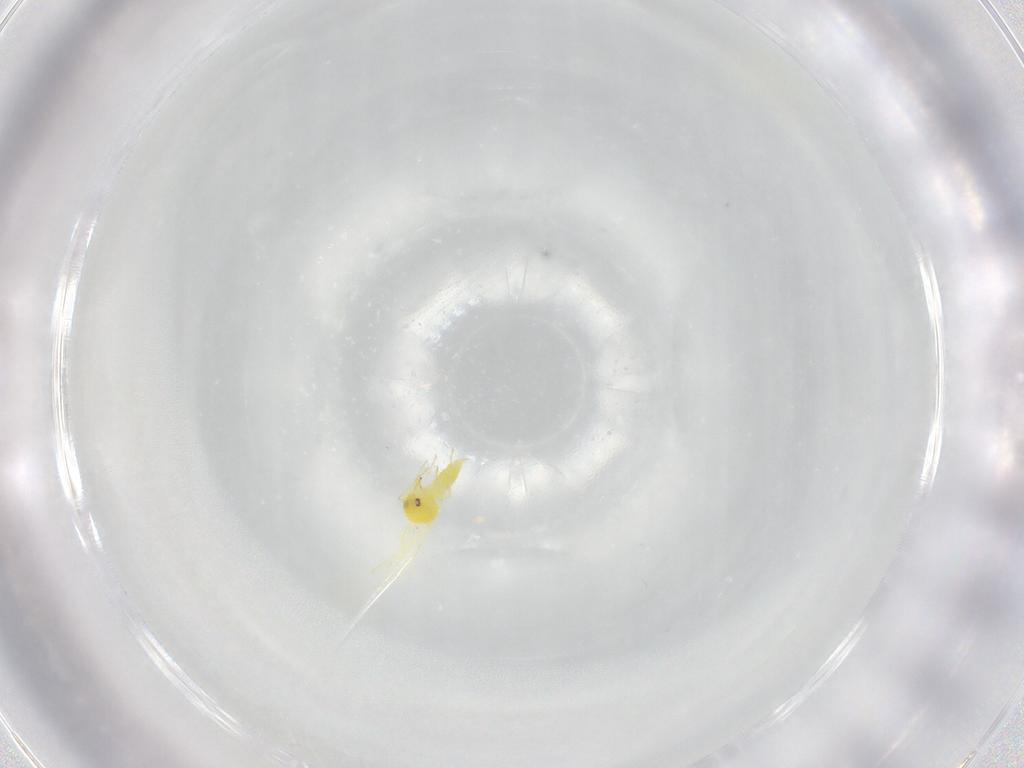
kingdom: Animalia
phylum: Arthropoda
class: Insecta
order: Hemiptera
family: Aleyrodidae
